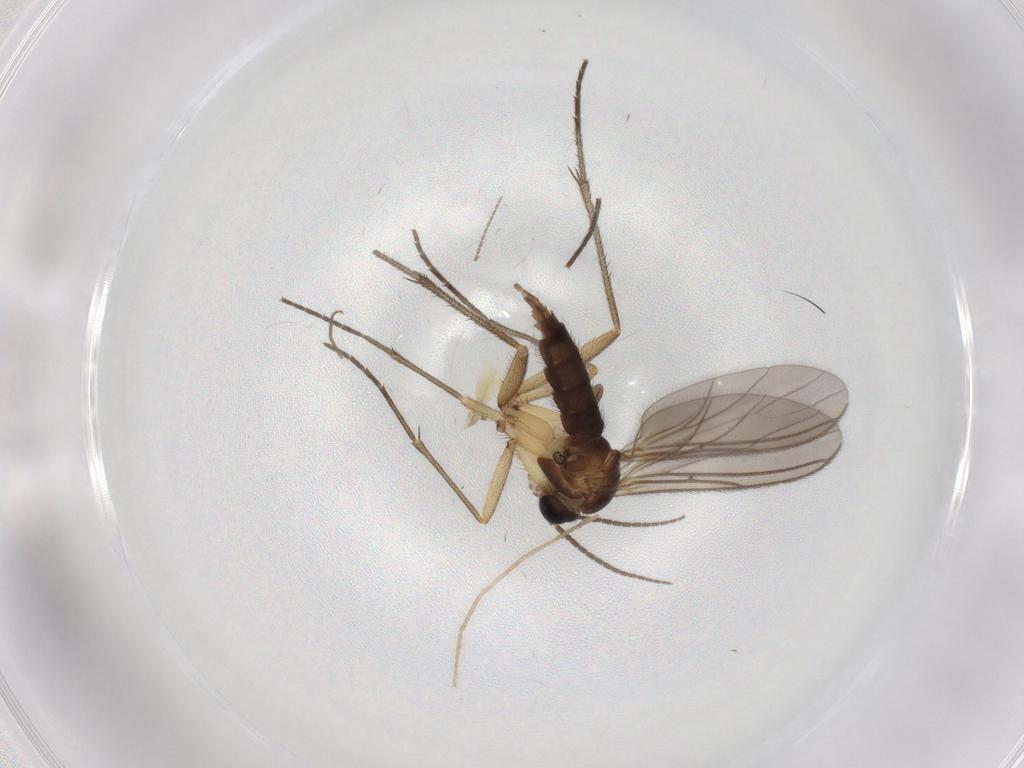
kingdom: Animalia
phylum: Arthropoda
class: Insecta
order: Diptera
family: Sciaridae
